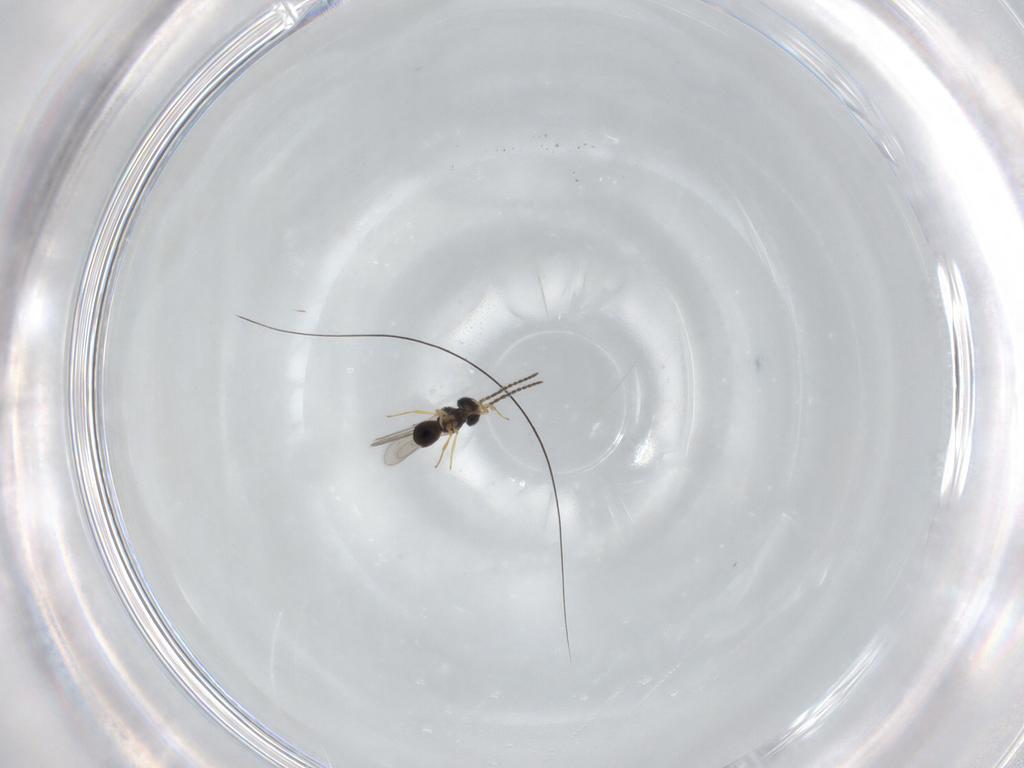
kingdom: Animalia
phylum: Arthropoda
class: Insecta
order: Hymenoptera
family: Scelionidae
